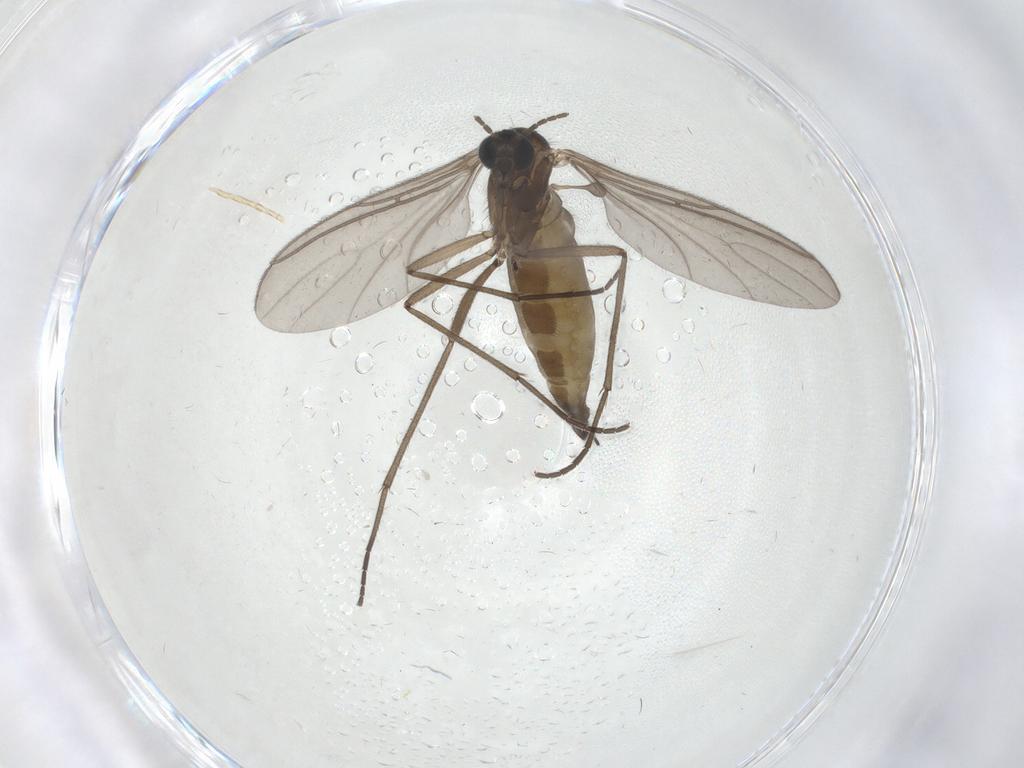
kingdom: Animalia
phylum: Arthropoda
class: Insecta
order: Diptera
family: Sciaridae
